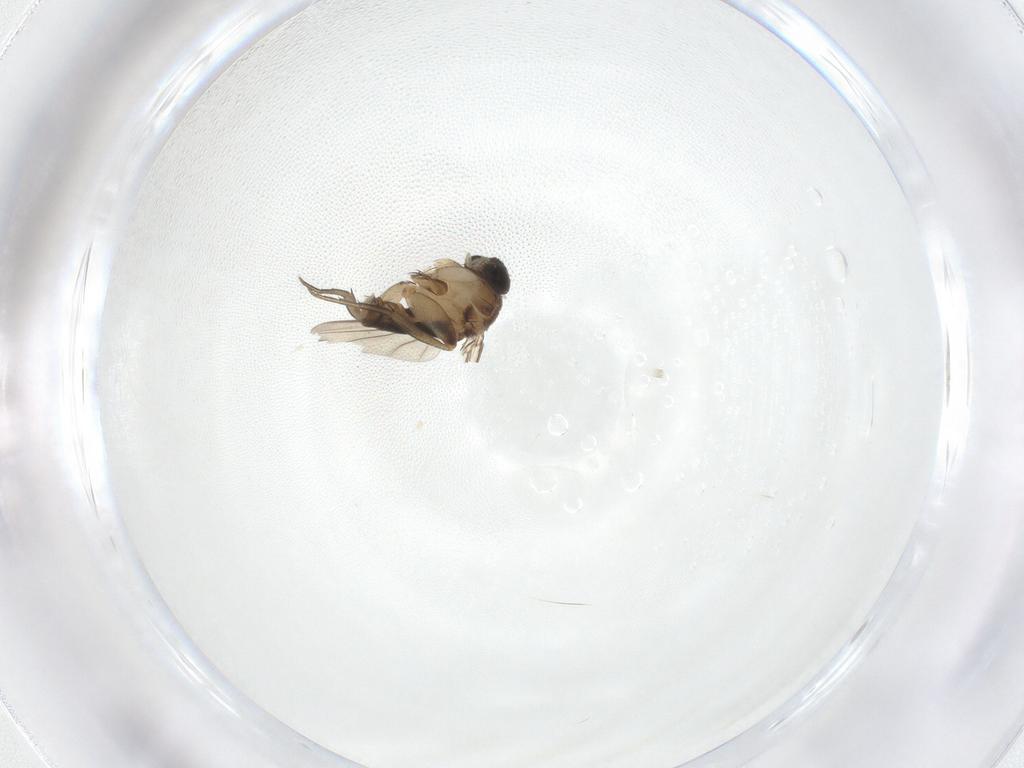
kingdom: Animalia
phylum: Arthropoda
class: Insecta
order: Diptera
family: Phoridae
